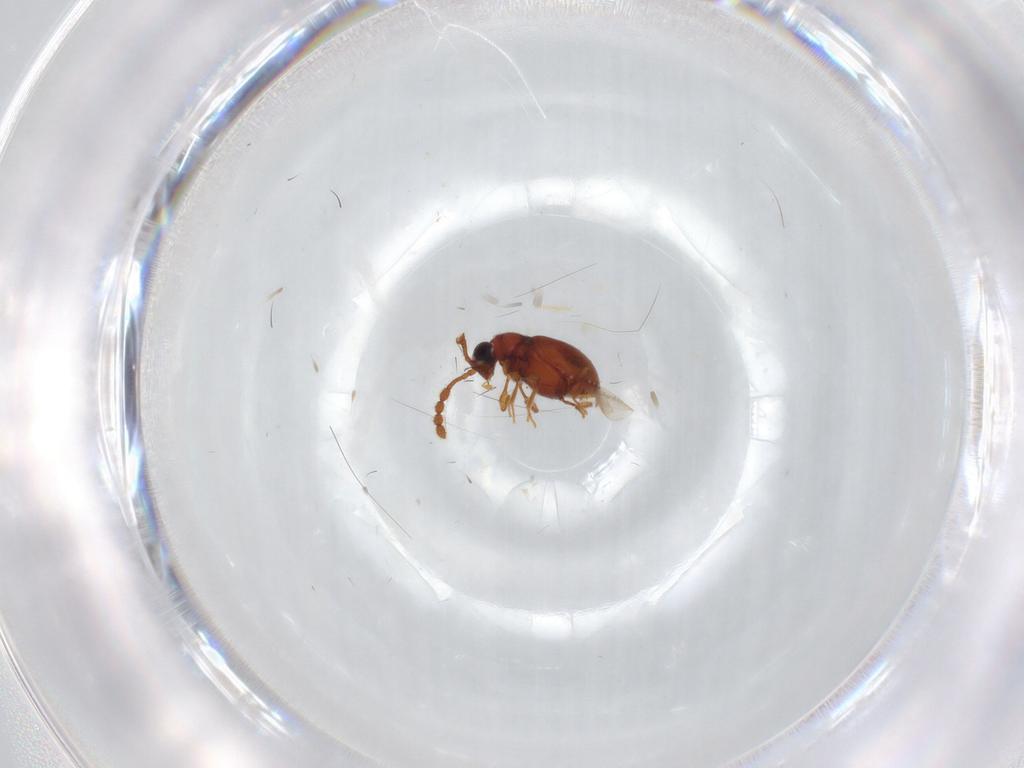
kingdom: Animalia
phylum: Arthropoda
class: Insecta
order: Coleoptera
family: Staphylinidae
